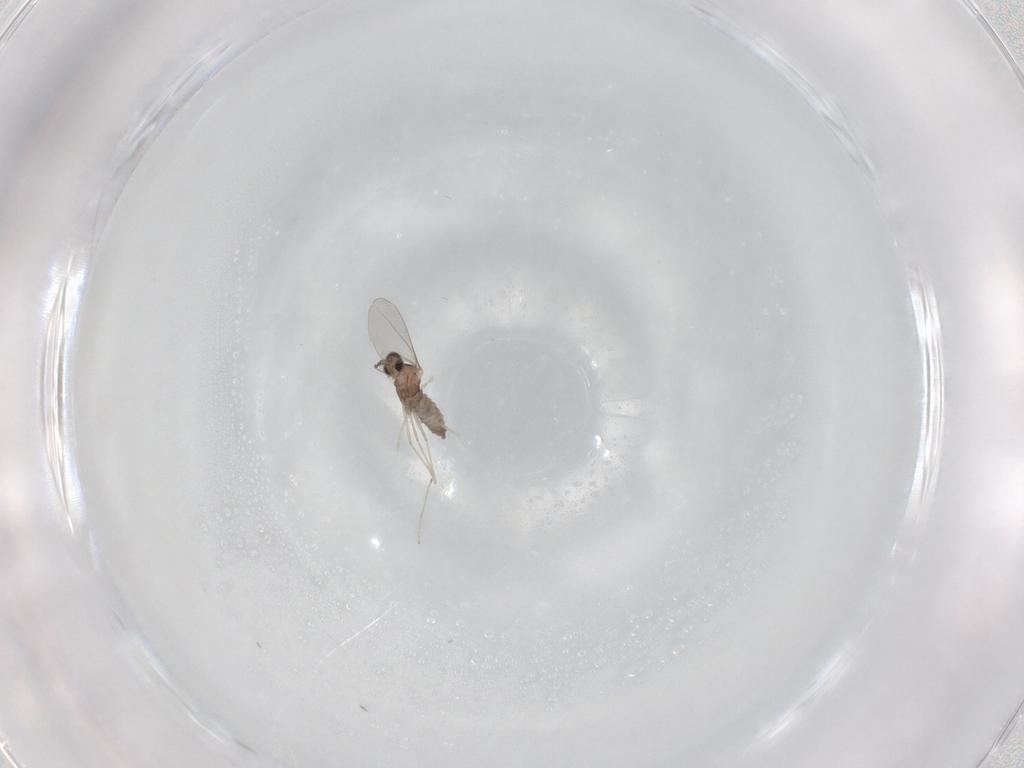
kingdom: Animalia
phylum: Arthropoda
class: Insecta
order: Diptera
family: Cecidomyiidae
